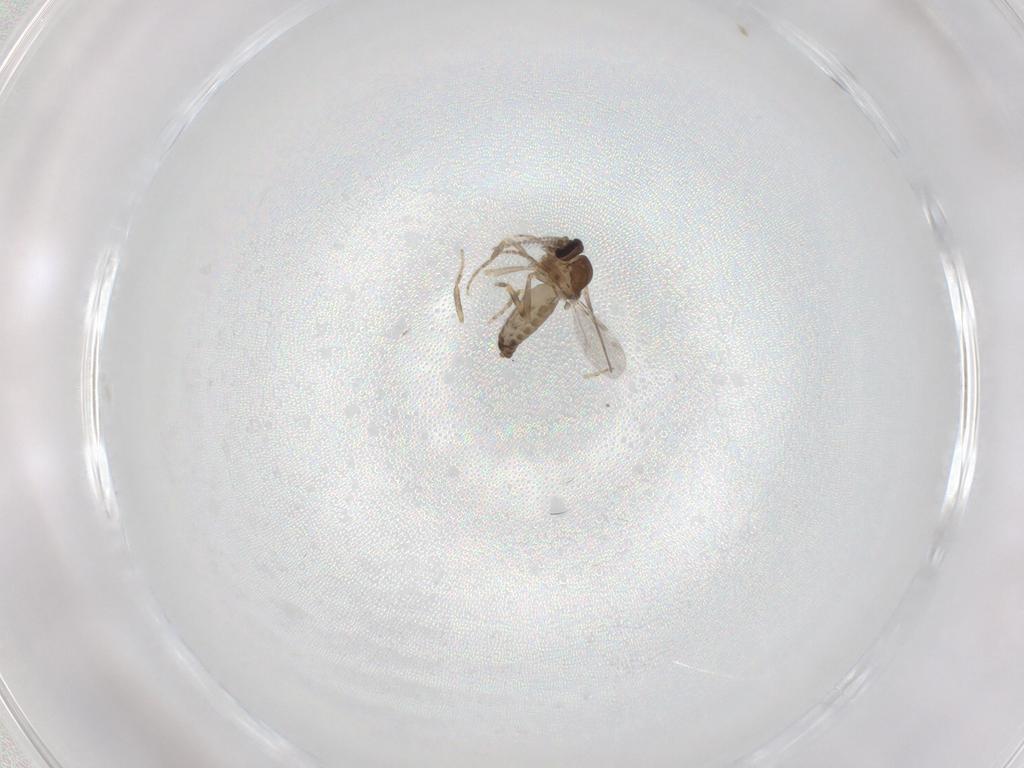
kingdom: Animalia
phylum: Arthropoda
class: Insecta
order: Diptera
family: Ceratopogonidae
